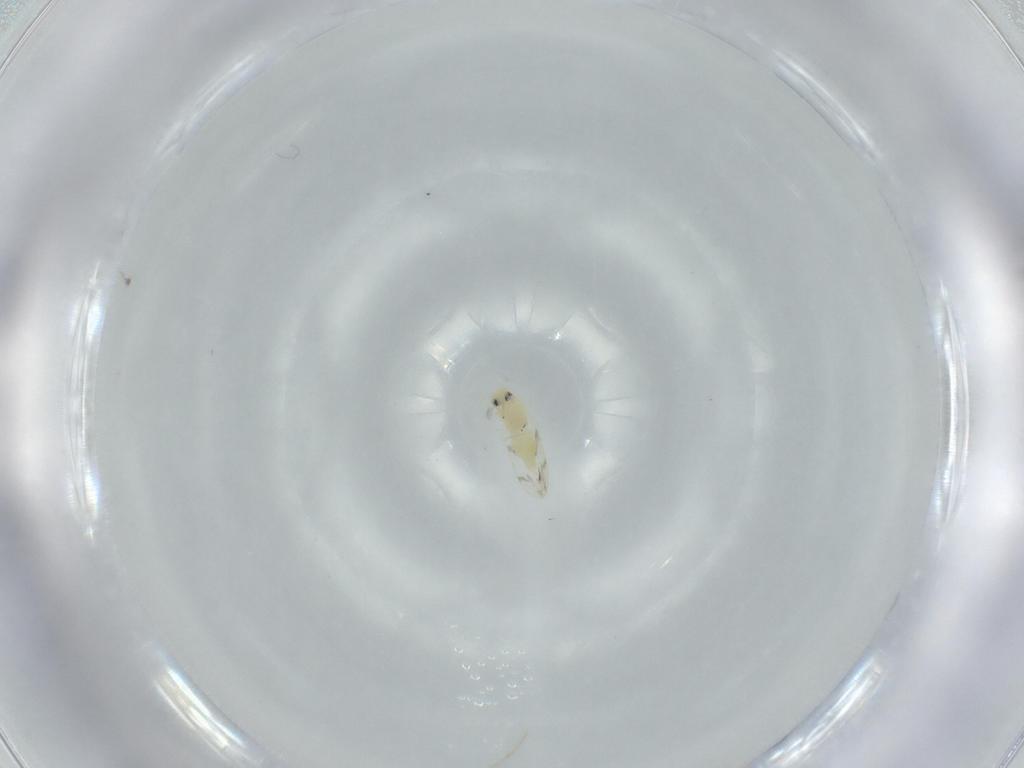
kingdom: Animalia
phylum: Arthropoda
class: Insecta
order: Hemiptera
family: Aleyrodidae
